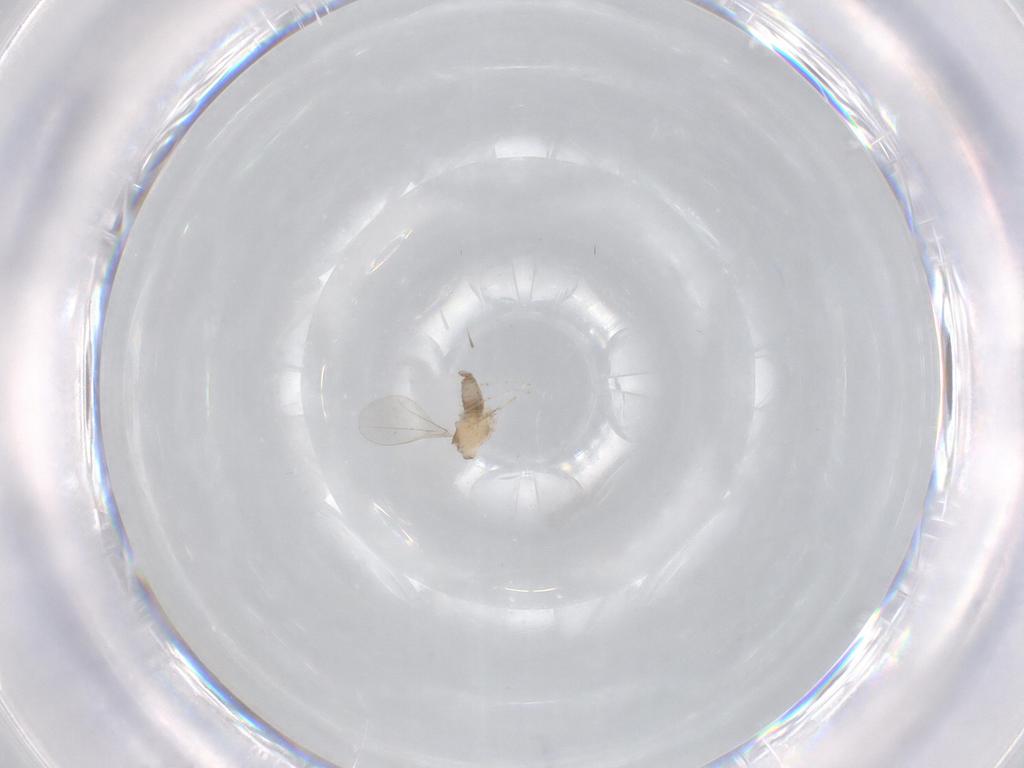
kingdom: Animalia
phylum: Arthropoda
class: Insecta
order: Diptera
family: Cecidomyiidae
